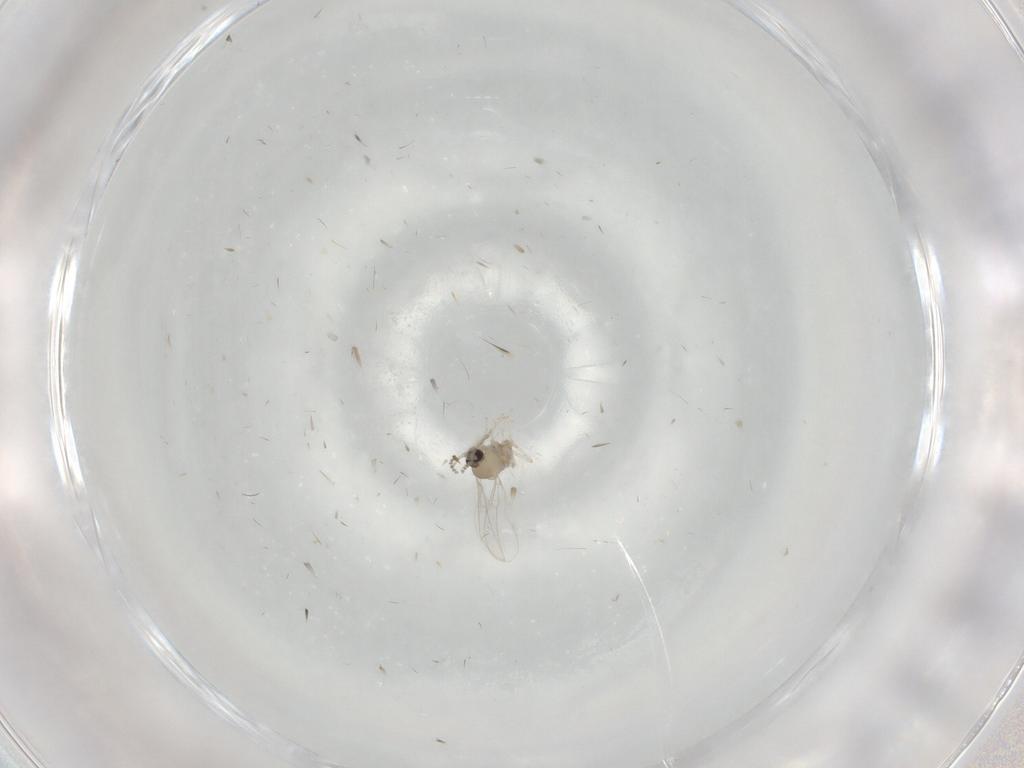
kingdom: Animalia
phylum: Arthropoda
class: Insecta
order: Diptera
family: Cecidomyiidae
